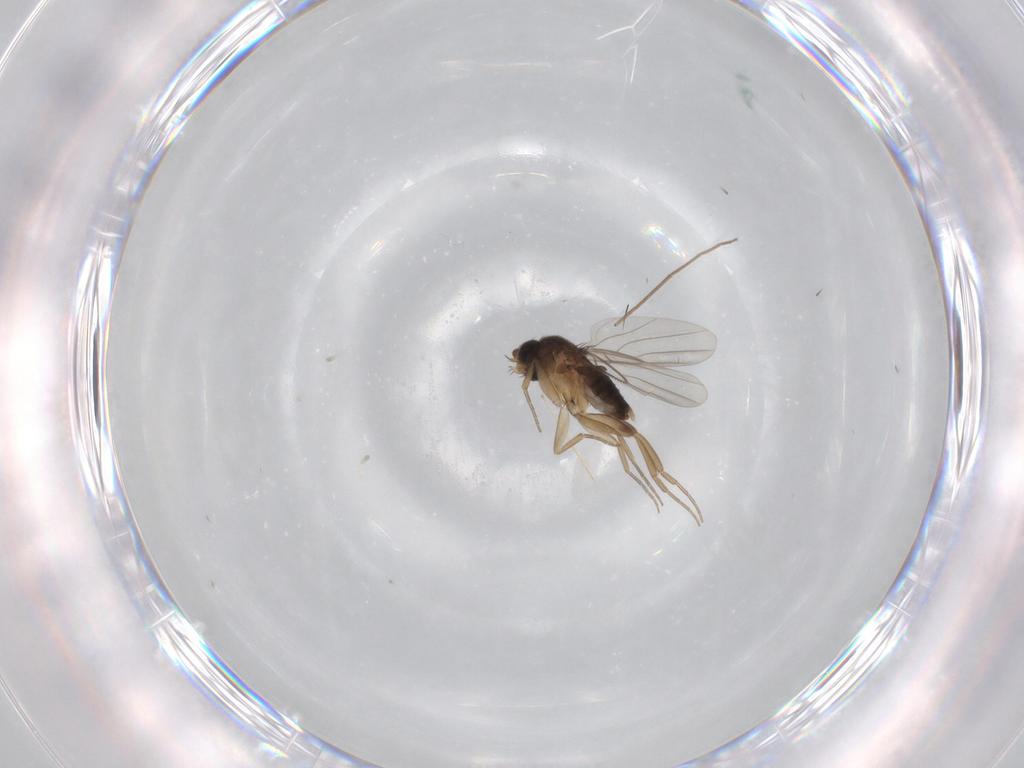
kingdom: Animalia
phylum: Arthropoda
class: Insecta
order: Diptera
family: Phoridae
